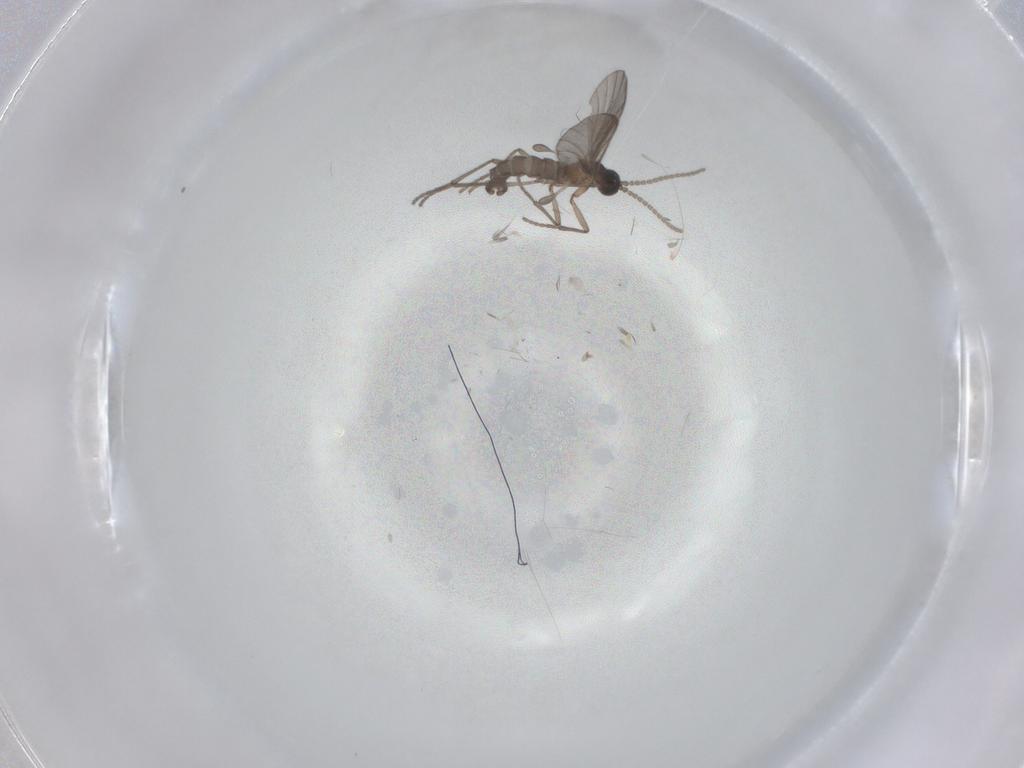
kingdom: Animalia
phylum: Arthropoda
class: Insecta
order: Diptera
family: Sciaridae
